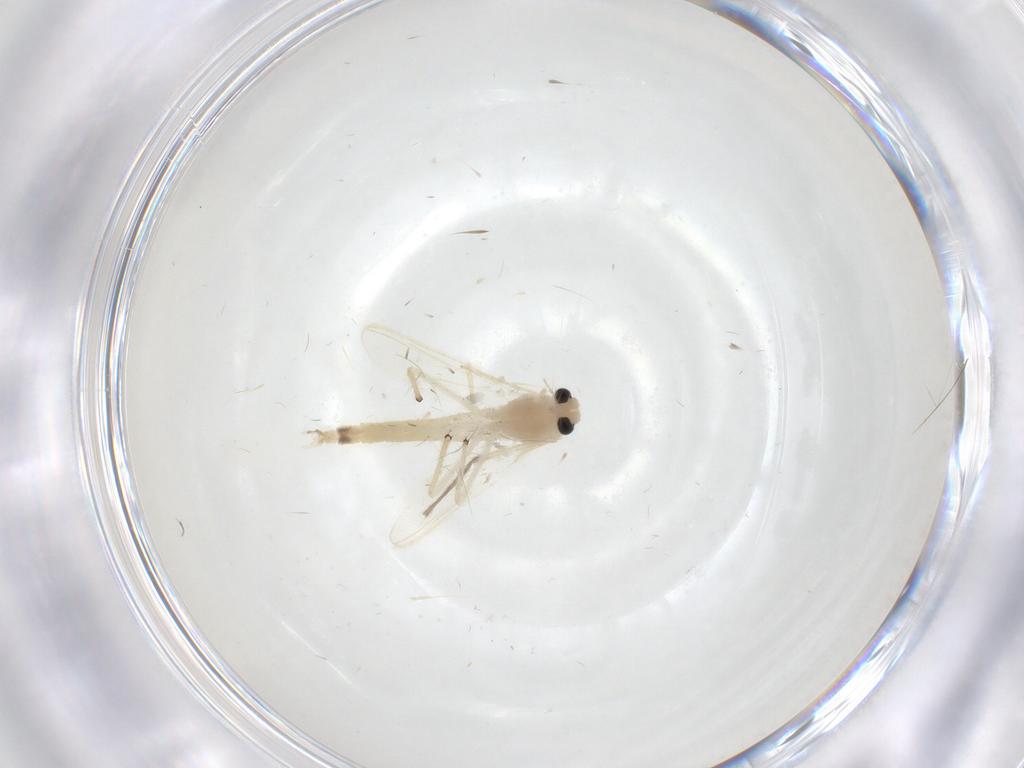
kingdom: Animalia
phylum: Arthropoda
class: Insecta
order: Diptera
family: Chironomidae
